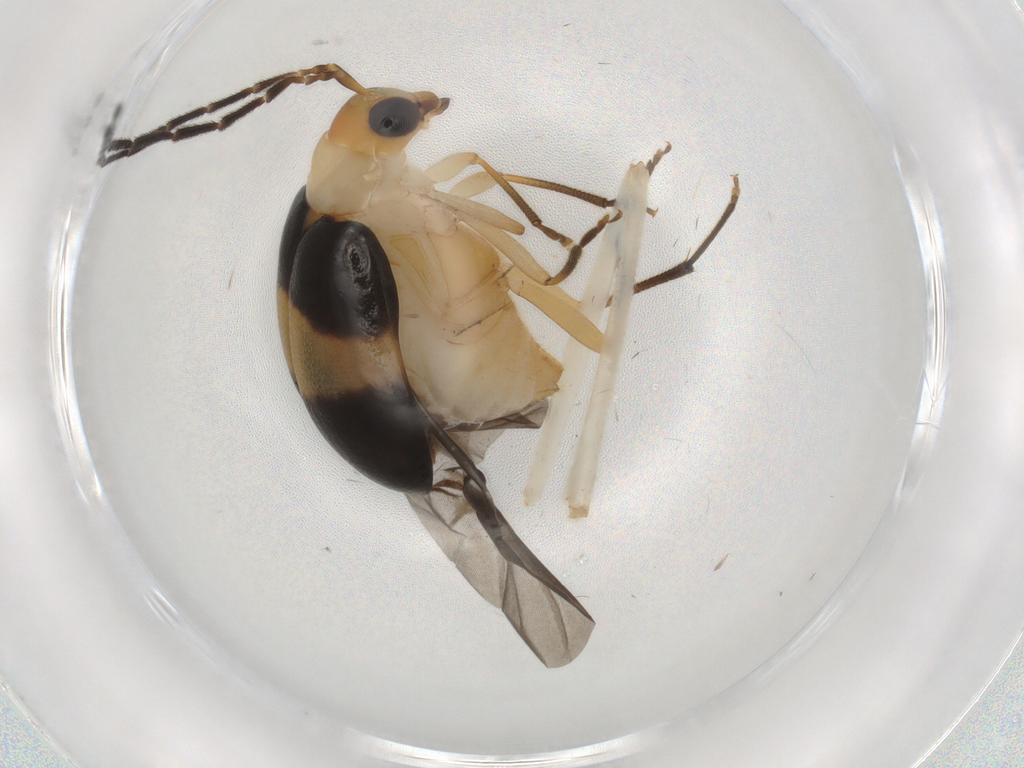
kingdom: Animalia
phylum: Arthropoda
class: Insecta
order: Coleoptera
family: Chrysomelidae
